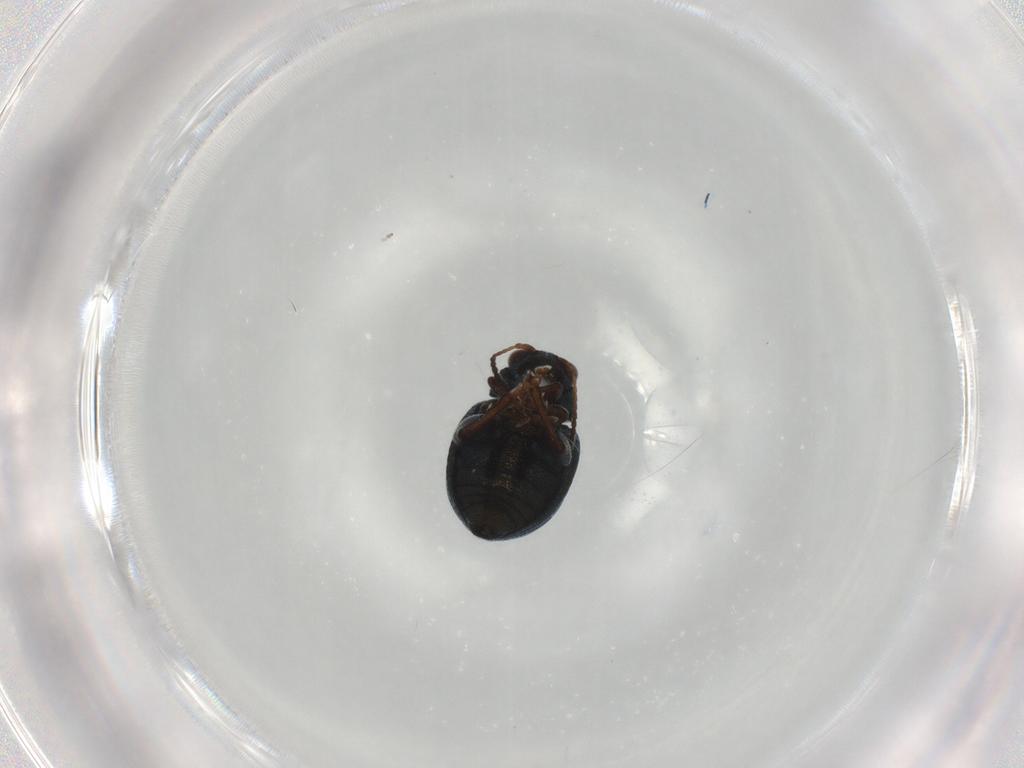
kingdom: Animalia
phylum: Arthropoda
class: Insecta
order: Coleoptera
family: Chrysomelidae
